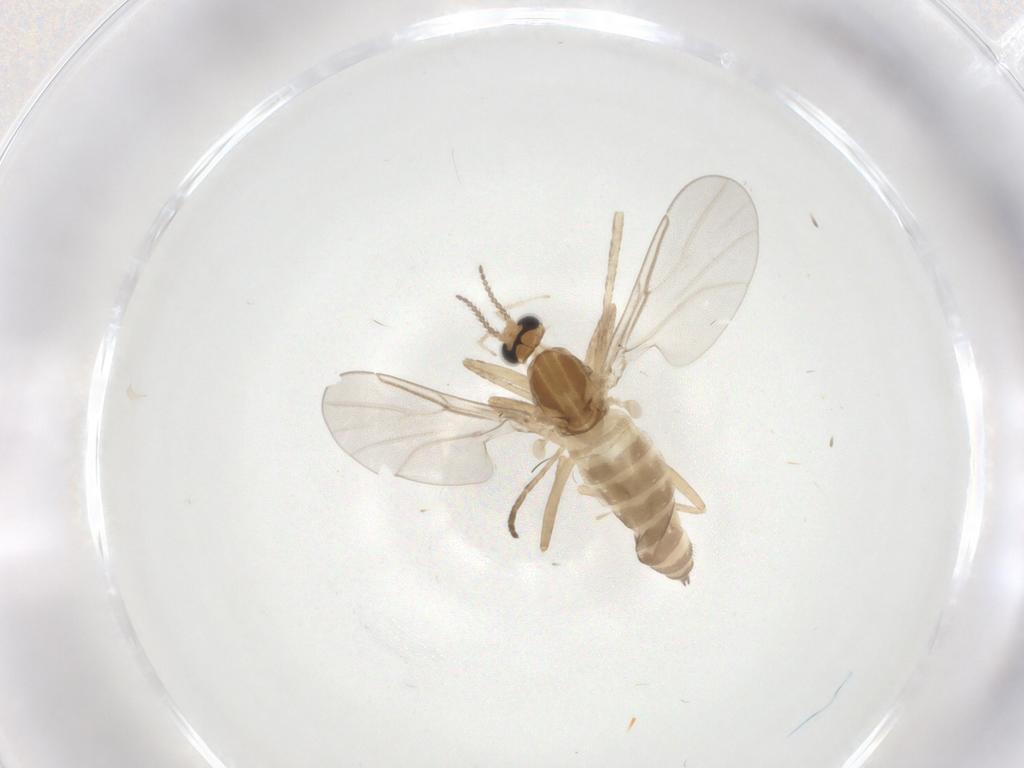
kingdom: Animalia
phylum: Arthropoda
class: Insecta
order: Diptera
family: Cecidomyiidae
